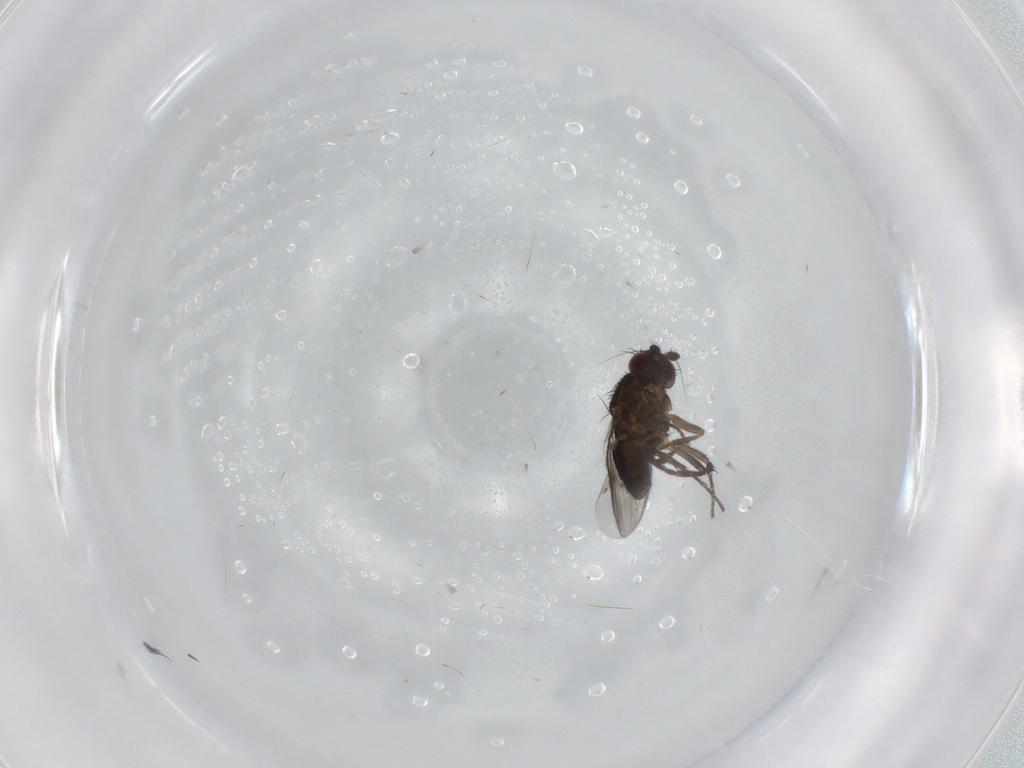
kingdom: Animalia
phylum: Arthropoda
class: Insecta
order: Diptera
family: Sphaeroceridae
